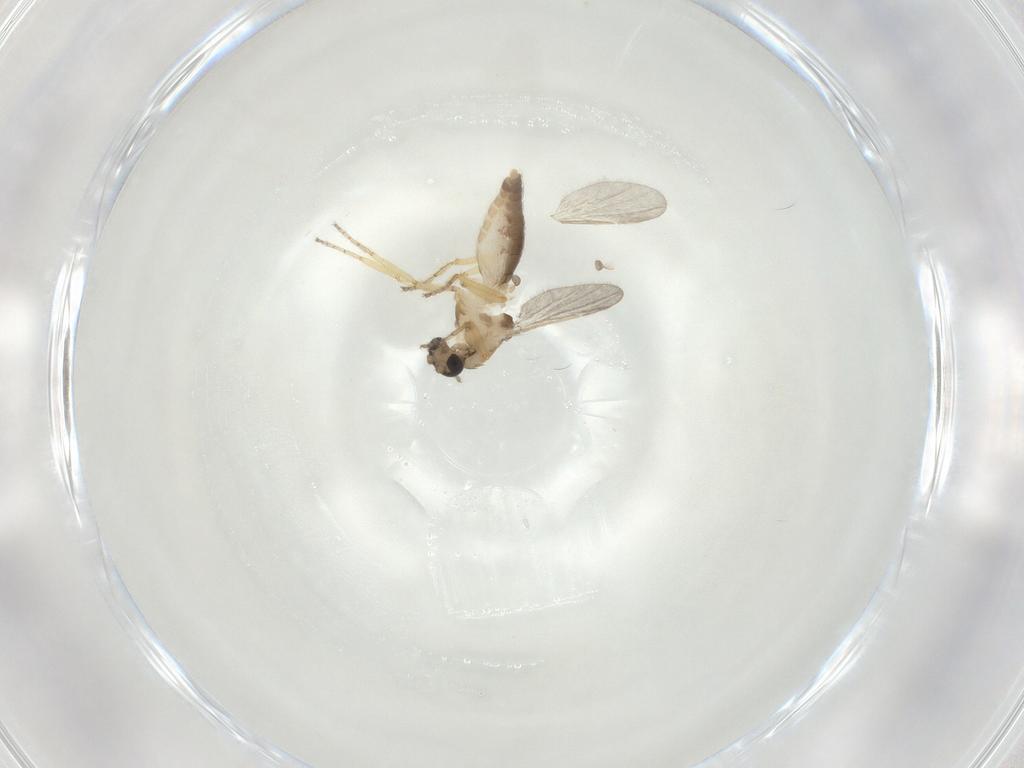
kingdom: Animalia
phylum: Arthropoda
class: Insecta
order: Diptera
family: Ceratopogonidae
